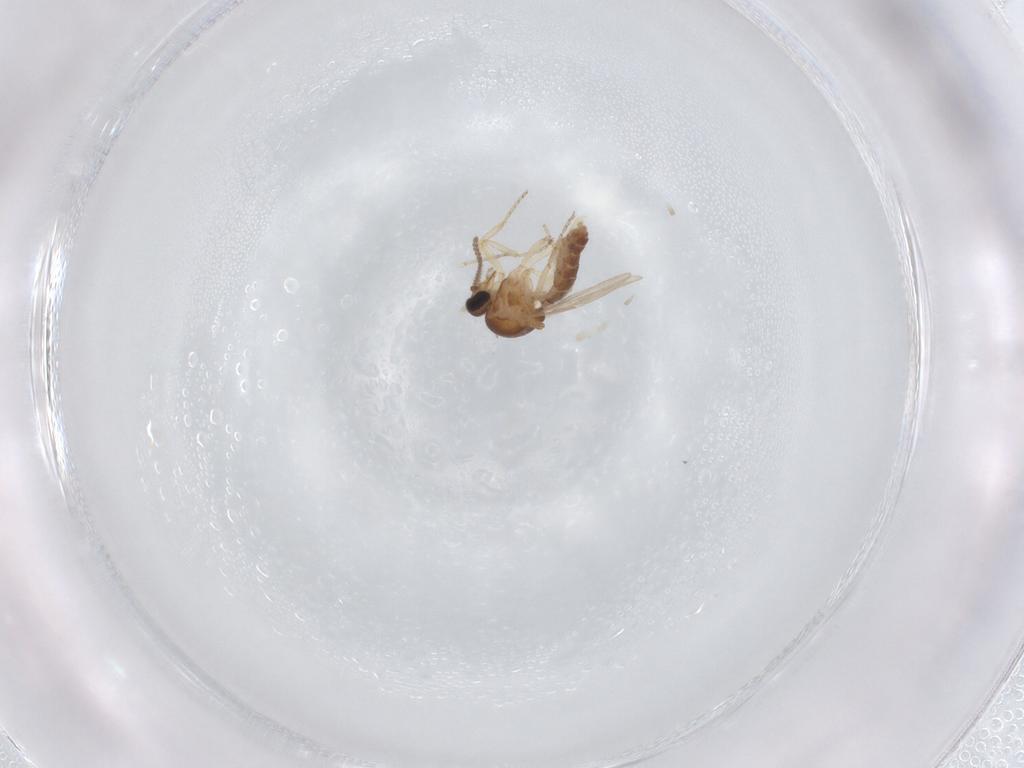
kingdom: Animalia
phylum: Arthropoda
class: Insecta
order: Diptera
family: Ceratopogonidae
